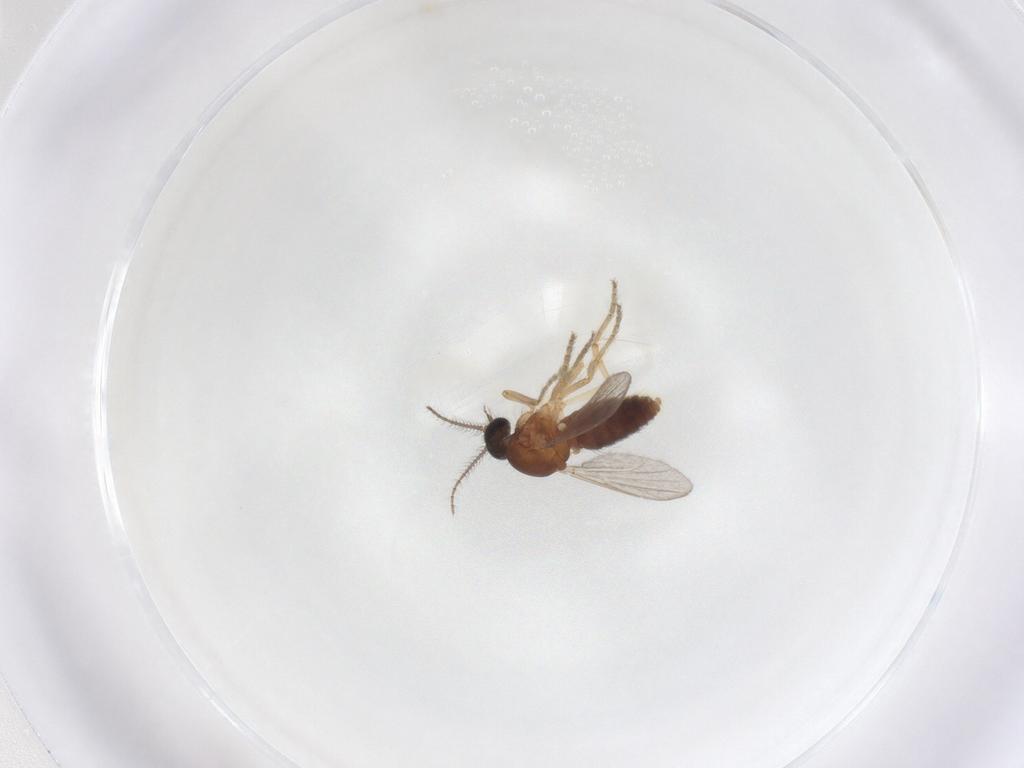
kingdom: Animalia
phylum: Arthropoda
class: Insecta
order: Diptera
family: Ceratopogonidae
